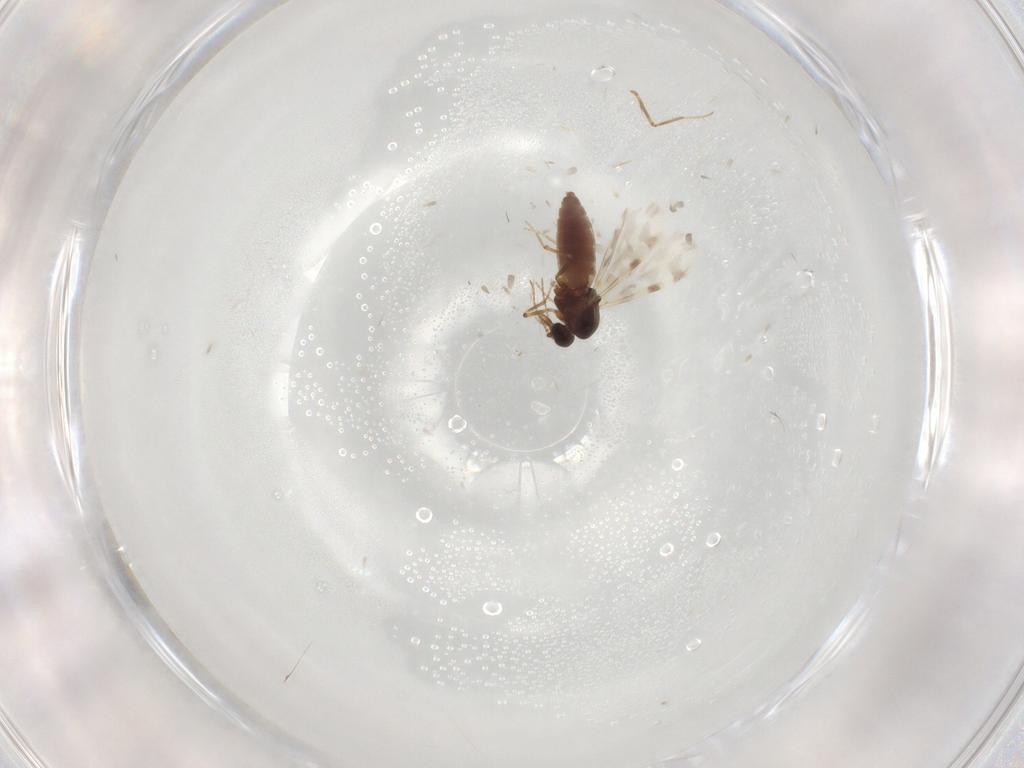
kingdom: Animalia
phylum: Arthropoda
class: Insecta
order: Diptera
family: Ceratopogonidae
